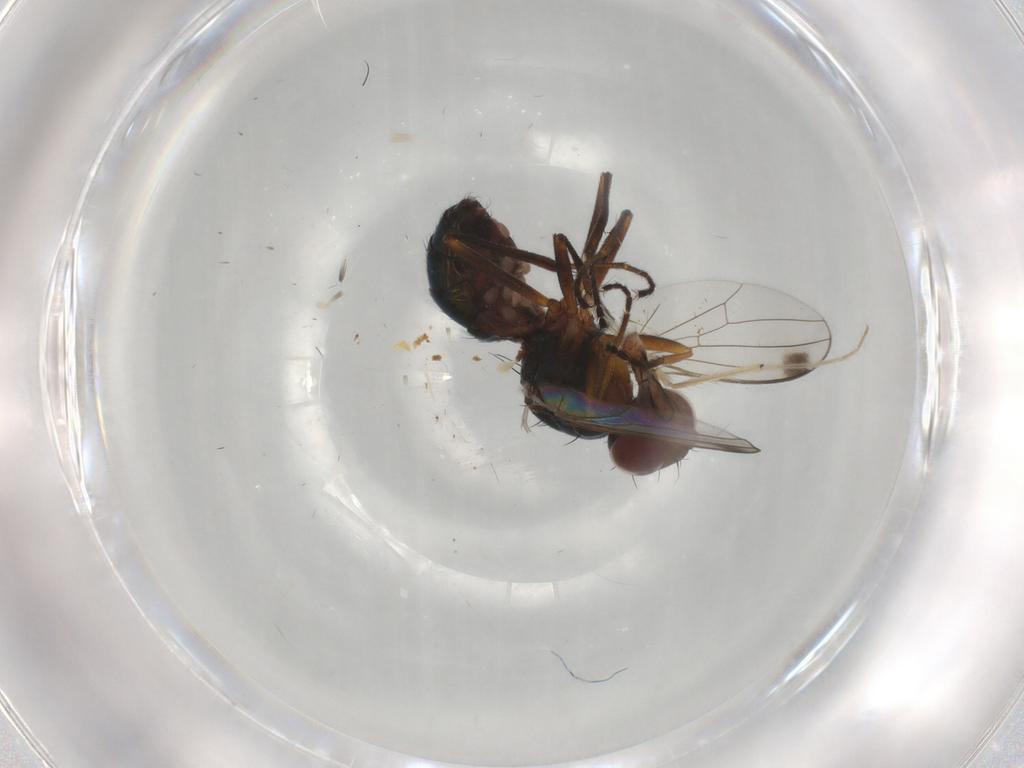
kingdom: Animalia
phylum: Arthropoda
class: Insecta
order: Diptera
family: Sepsidae
